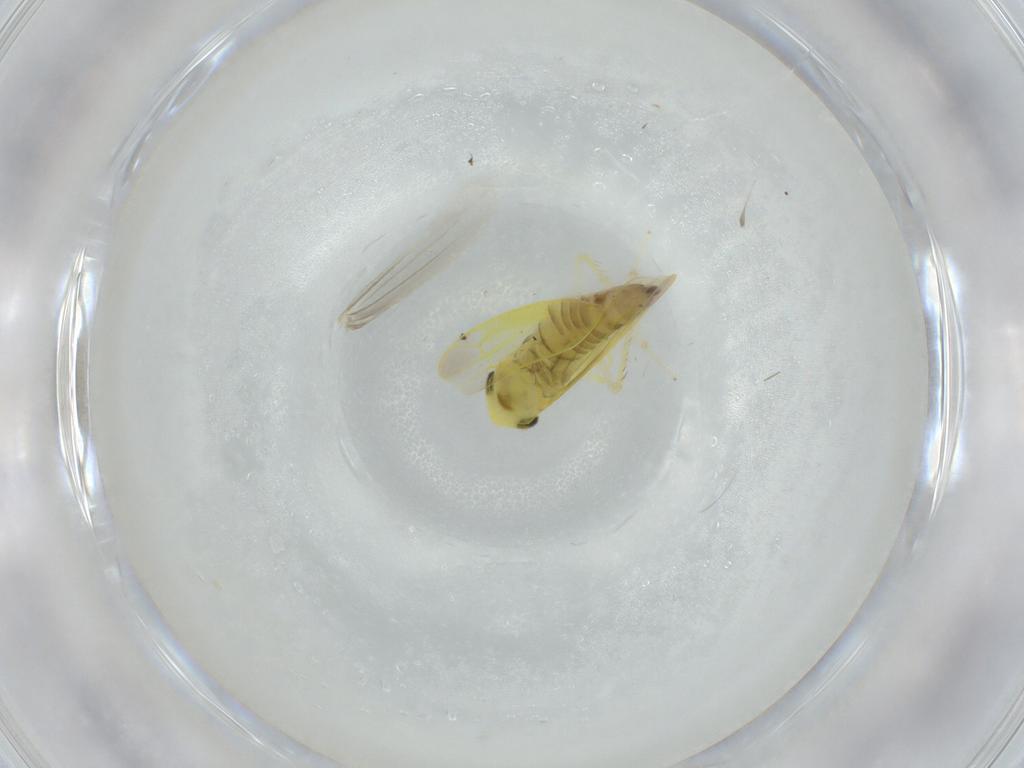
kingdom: Animalia
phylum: Arthropoda
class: Insecta
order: Hemiptera
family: Cicadellidae
